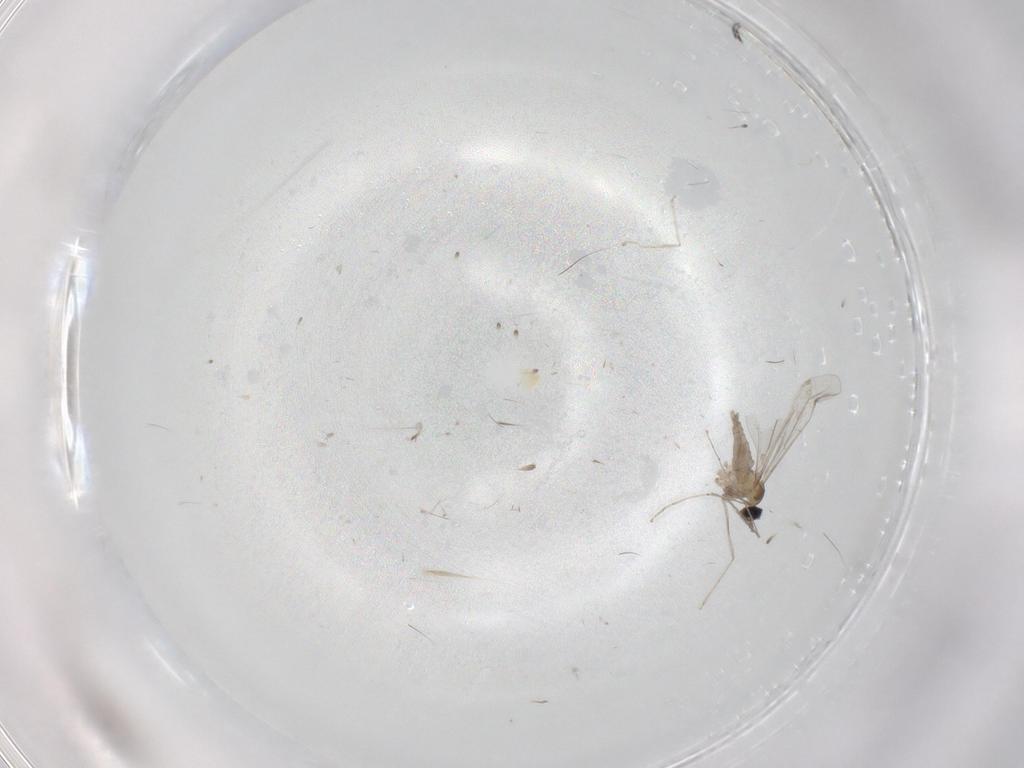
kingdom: Animalia
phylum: Arthropoda
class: Insecta
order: Diptera
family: Cecidomyiidae
